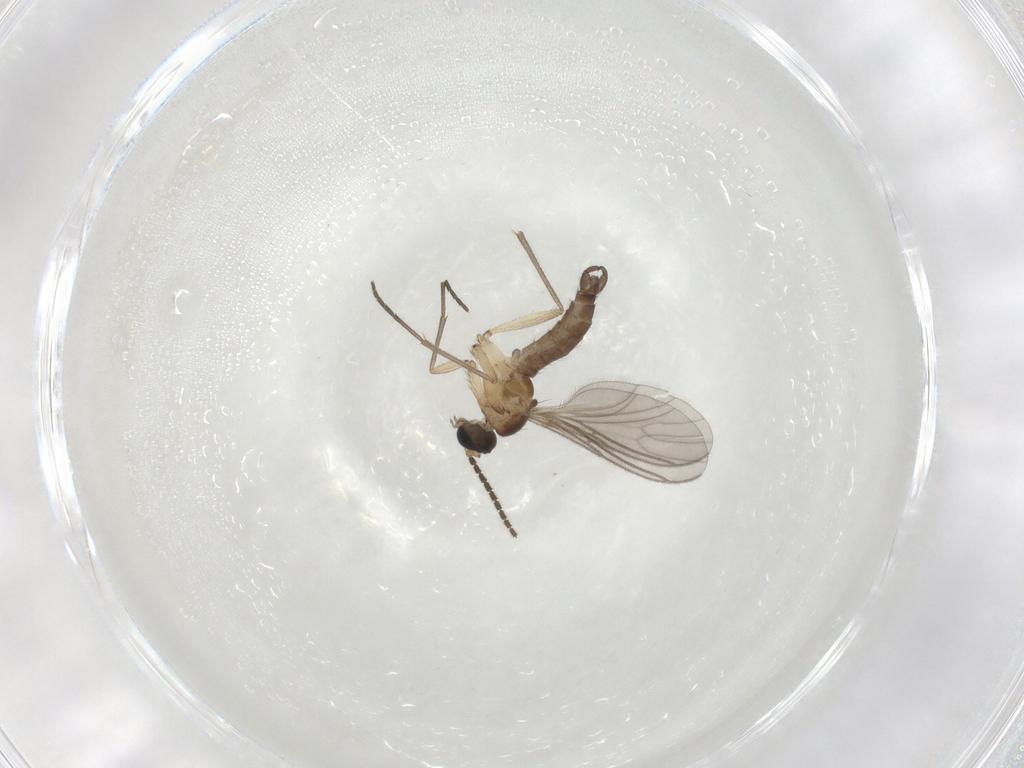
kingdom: Animalia
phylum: Arthropoda
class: Insecta
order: Diptera
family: Sciaridae
